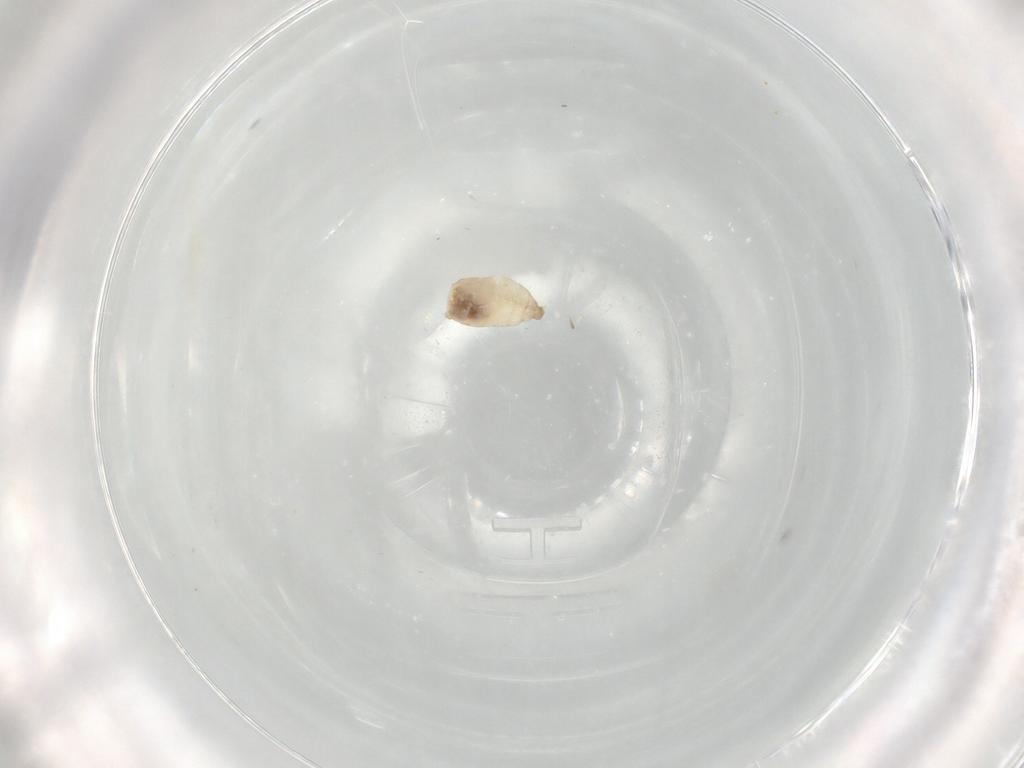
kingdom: Animalia
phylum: Arthropoda
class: Insecta
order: Diptera
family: Cecidomyiidae
